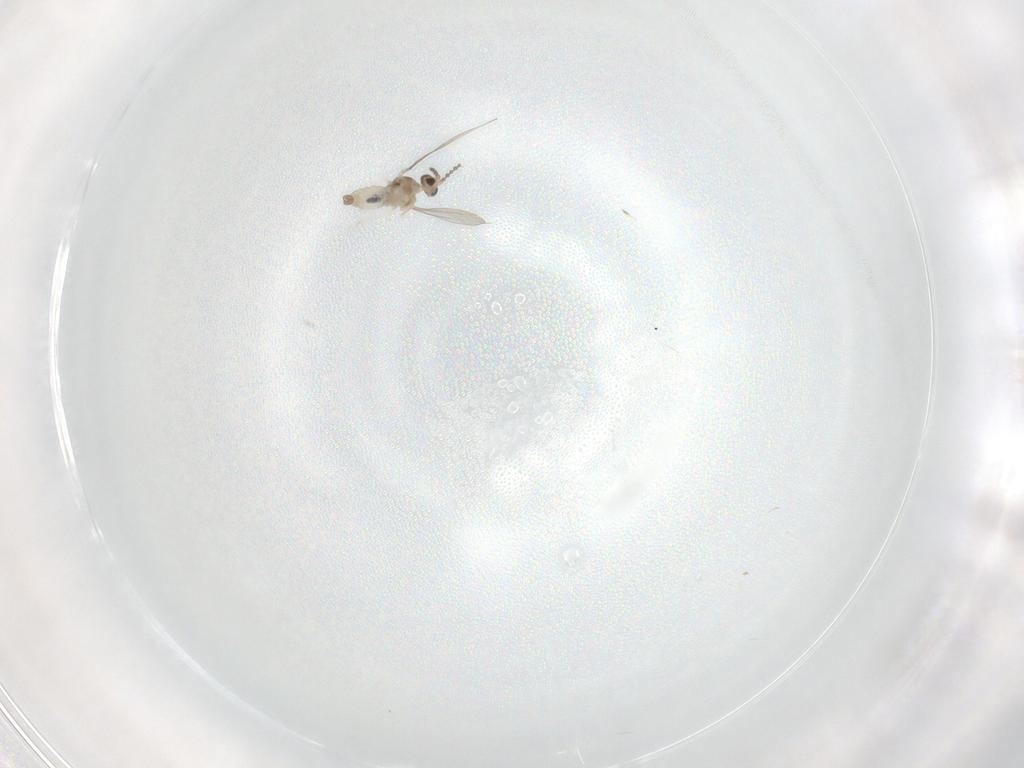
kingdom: Animalia
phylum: Arthropoda
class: Insecta
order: Diptera
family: Cecidomyiidae
